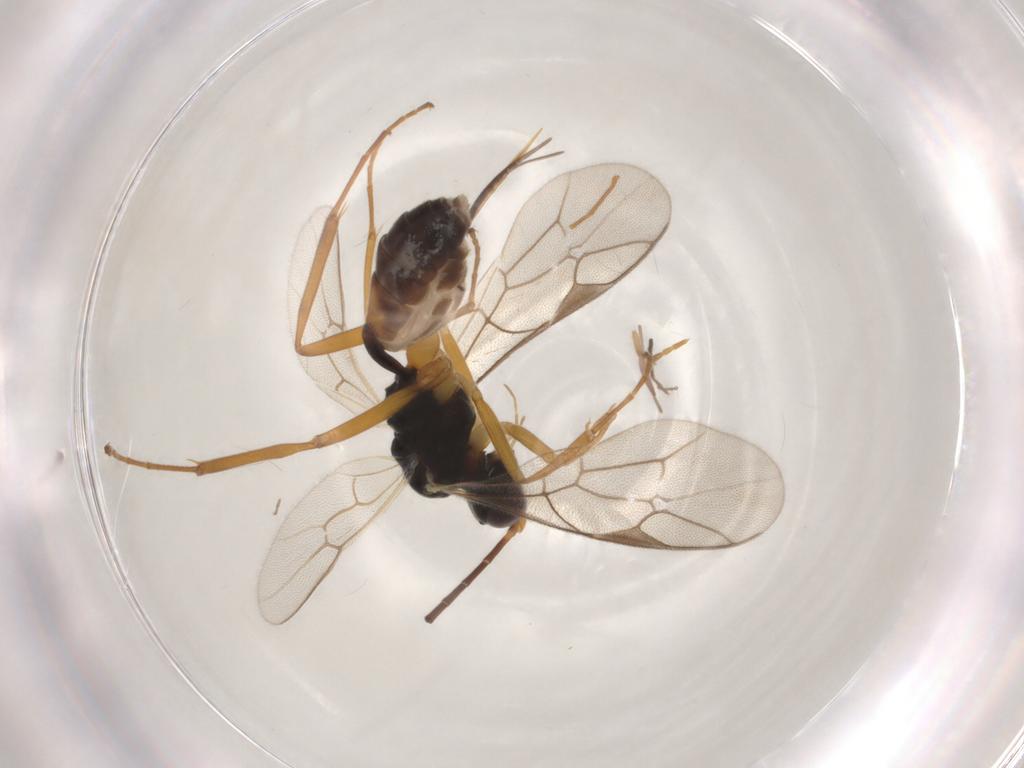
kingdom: Animalia
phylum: Arthropoda
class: Insecta
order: Hymenoptera
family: Ichneumonidae
